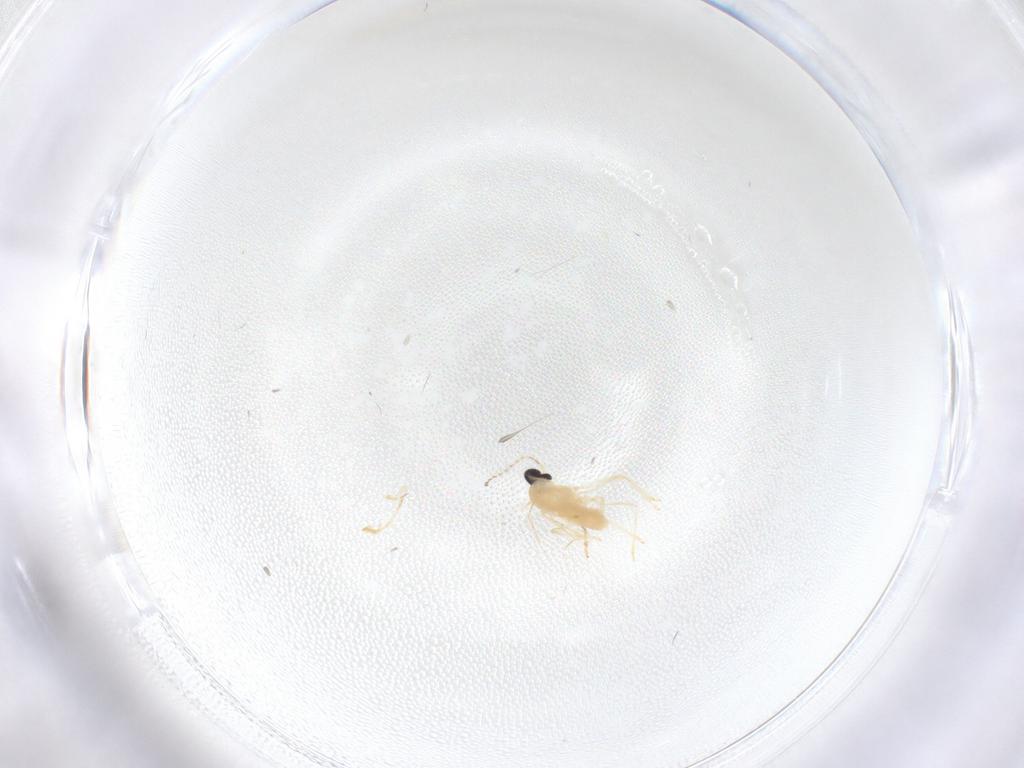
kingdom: Animalia
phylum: Arthropoda
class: Insecta
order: Diptera
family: Cecidomyiidae
